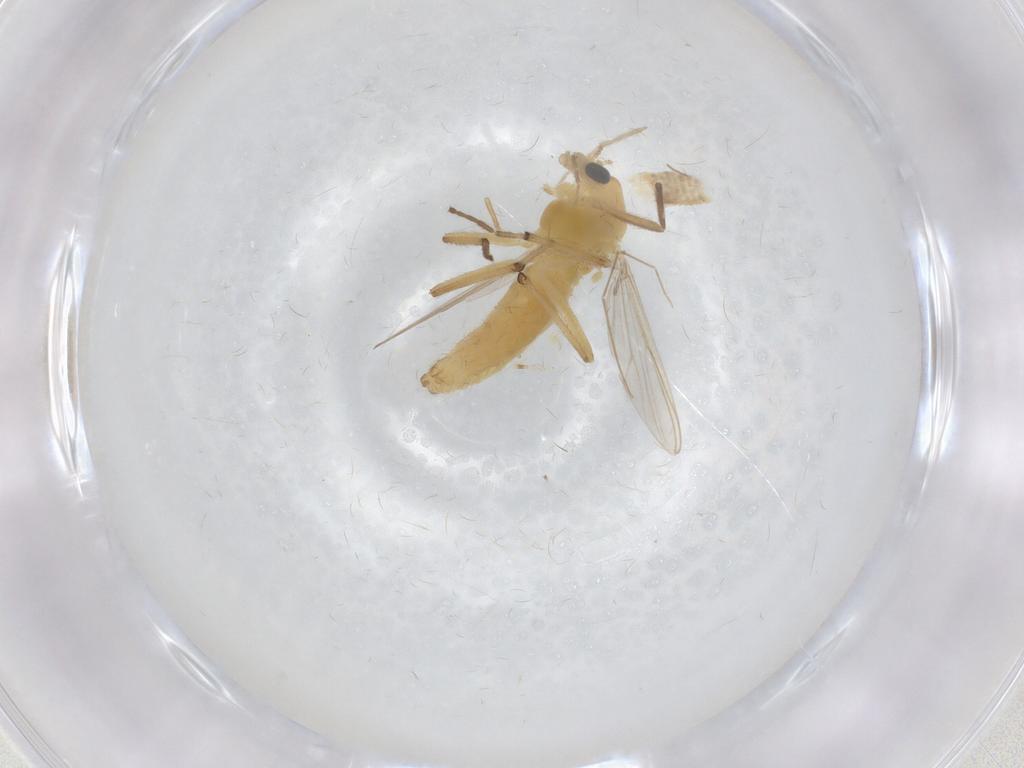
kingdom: Animalia
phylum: Arthropoda
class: Insecta
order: Diptera
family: Chironomidae
